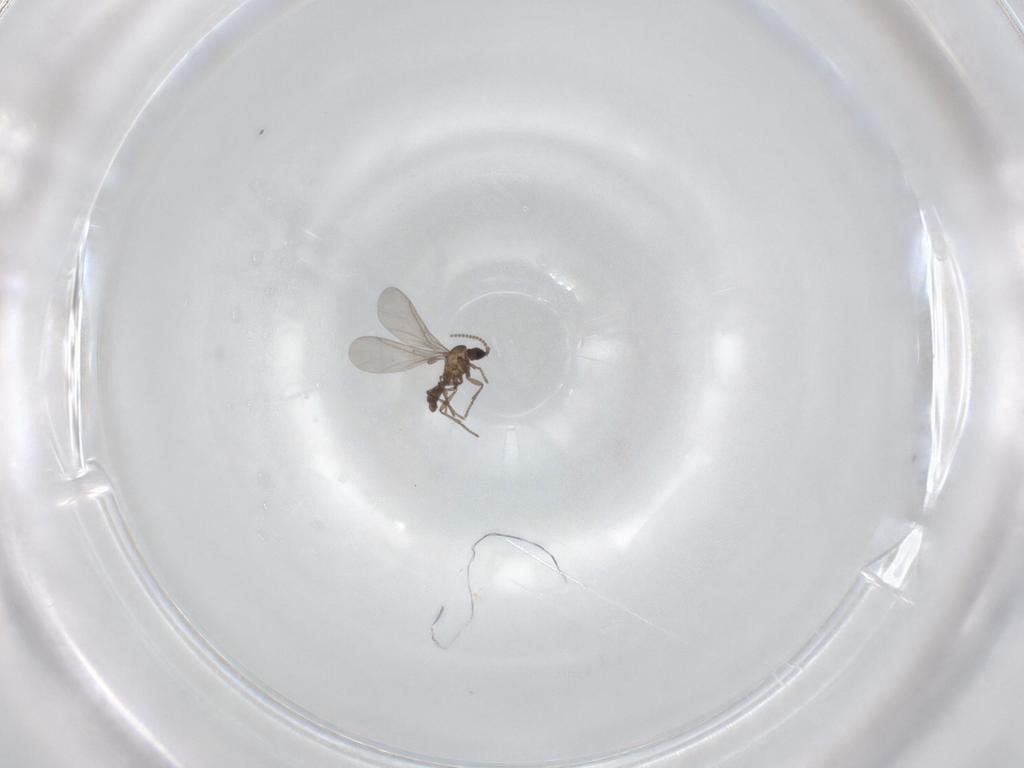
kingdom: Animalia
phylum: Arthropoda
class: Insecta
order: Diptera
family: Sciaridae
